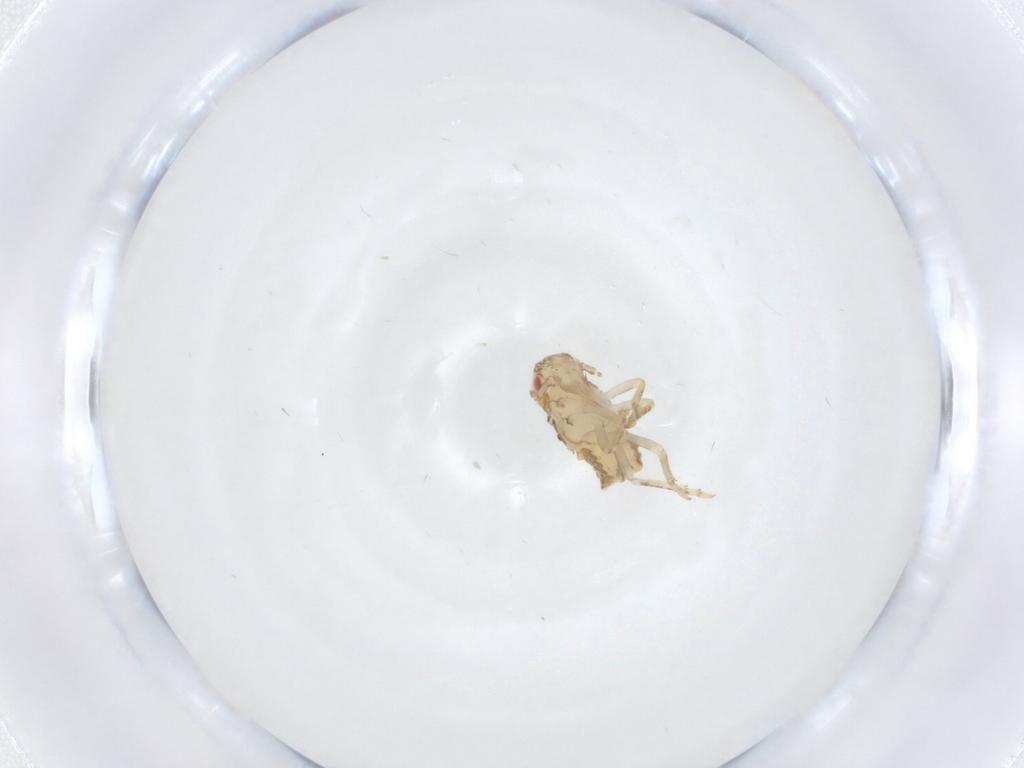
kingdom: Animalia
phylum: Arthropoda
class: Insecta
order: Hemiptera
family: Flatidae
